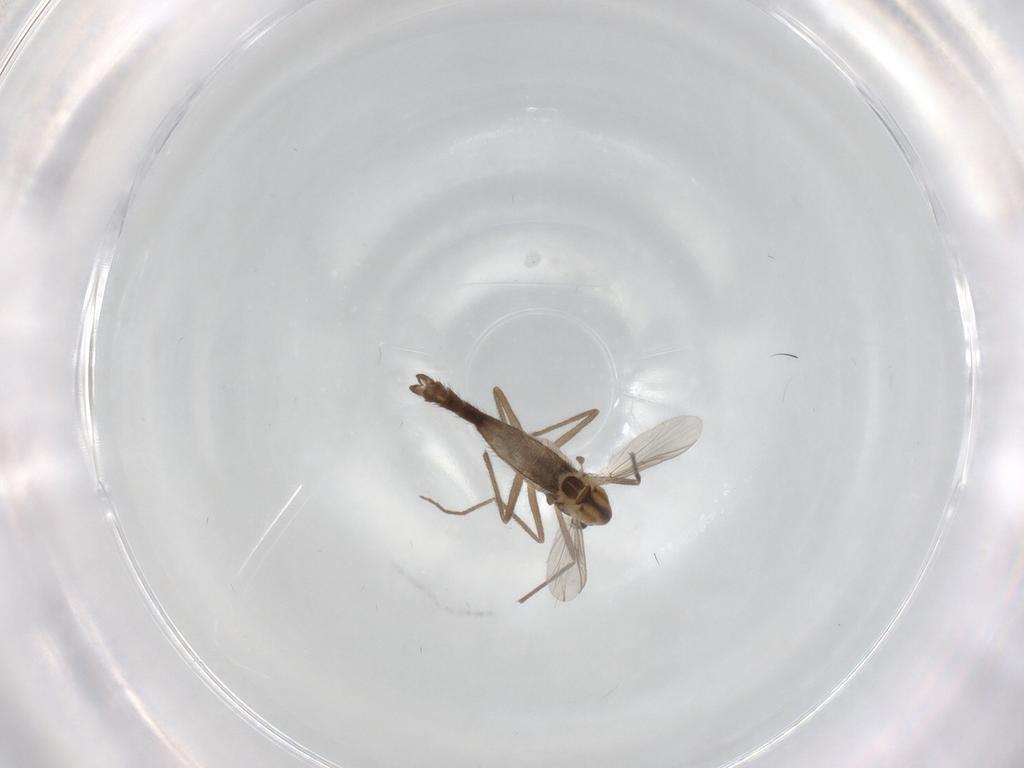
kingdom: Animalia
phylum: Arthropoda
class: Insecta
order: Diptera
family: Chironomidae
